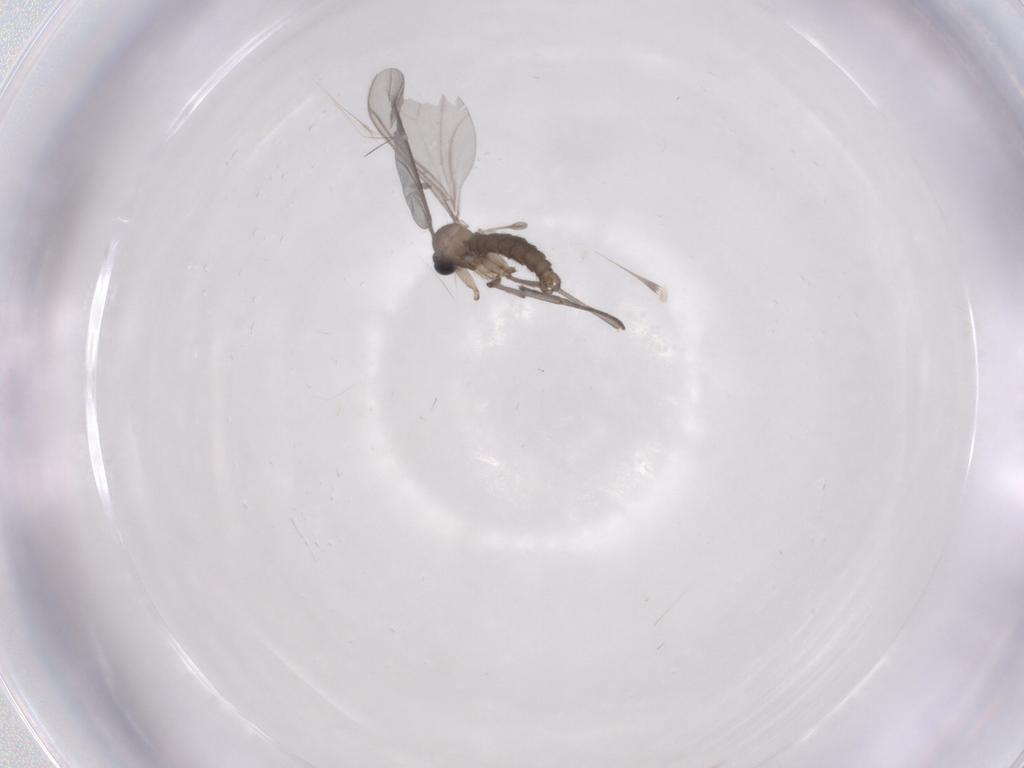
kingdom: Animalia
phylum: Arthropoda
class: Insecta
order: Diptera
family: Sciaridae
